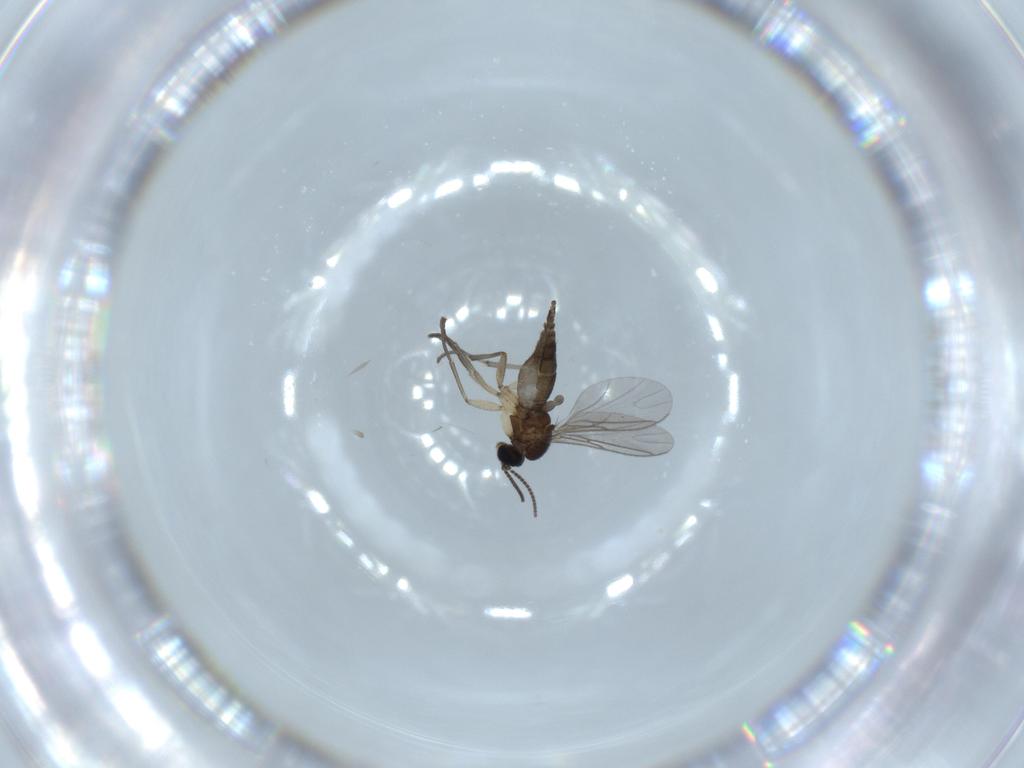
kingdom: Animalia
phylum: Arthropoda
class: Insecta
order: Diptera
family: Sciaridae
